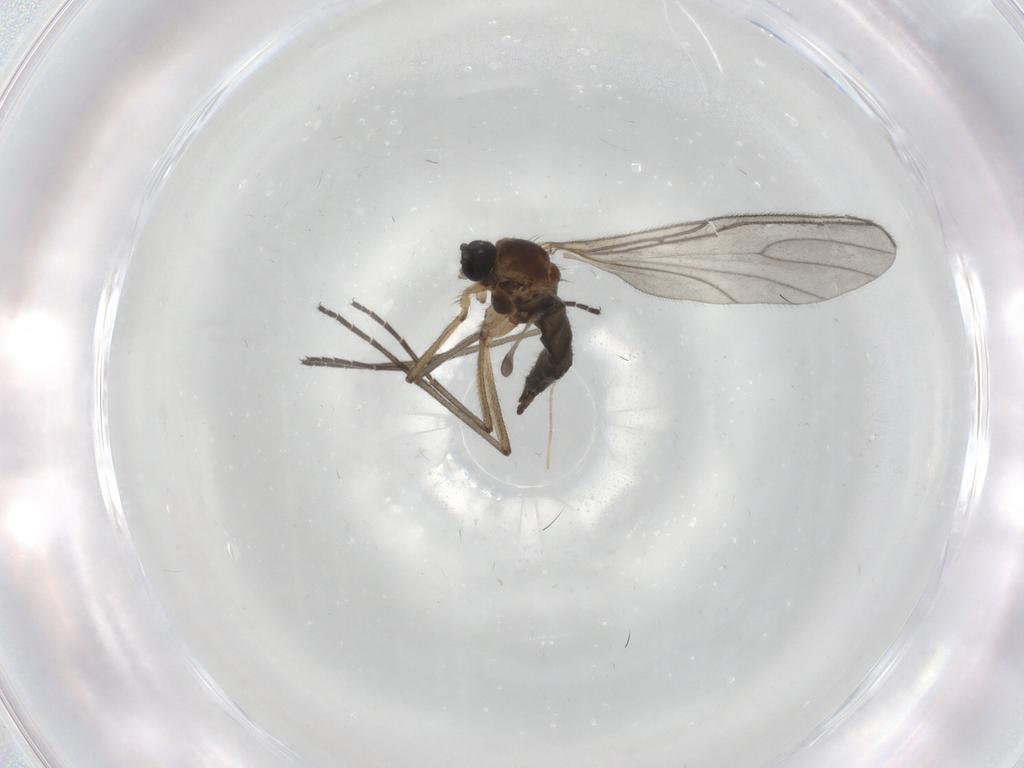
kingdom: Animalia
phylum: Arthropoda
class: Insecta
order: Diptera
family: Sciaridae
